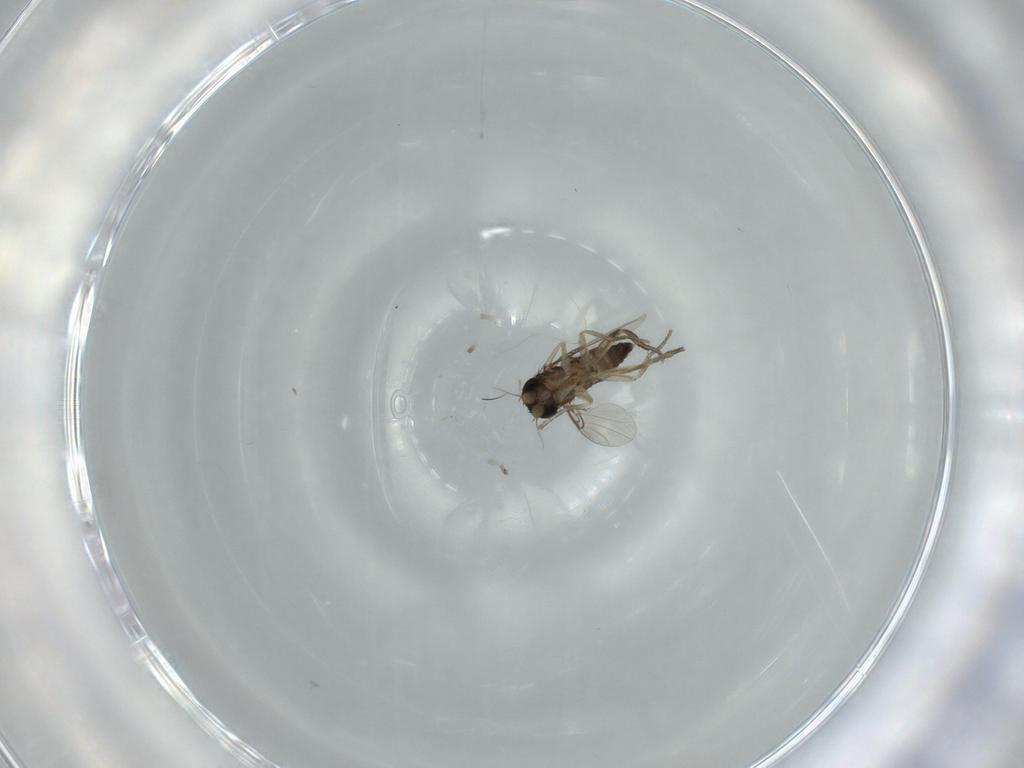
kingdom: Animalia
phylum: Arthropoda
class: Insecta
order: Diptera
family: Phoridae
